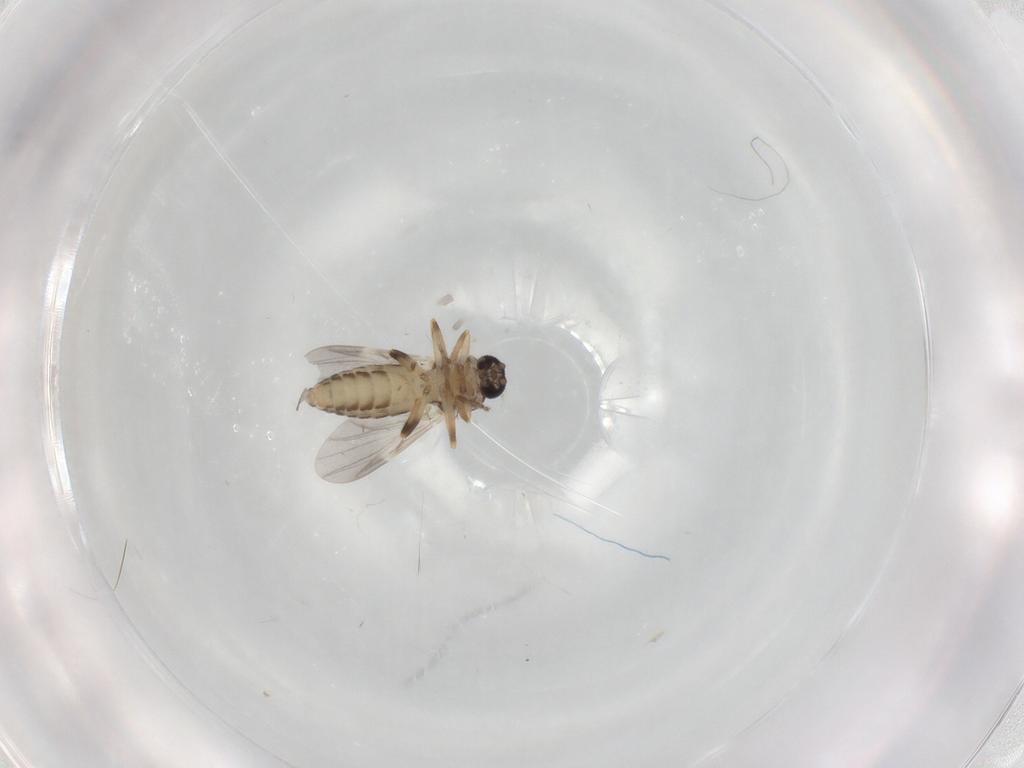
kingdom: Animalia
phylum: Arthropoda
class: Insecta
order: Diptera
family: Ceratopogonidae
